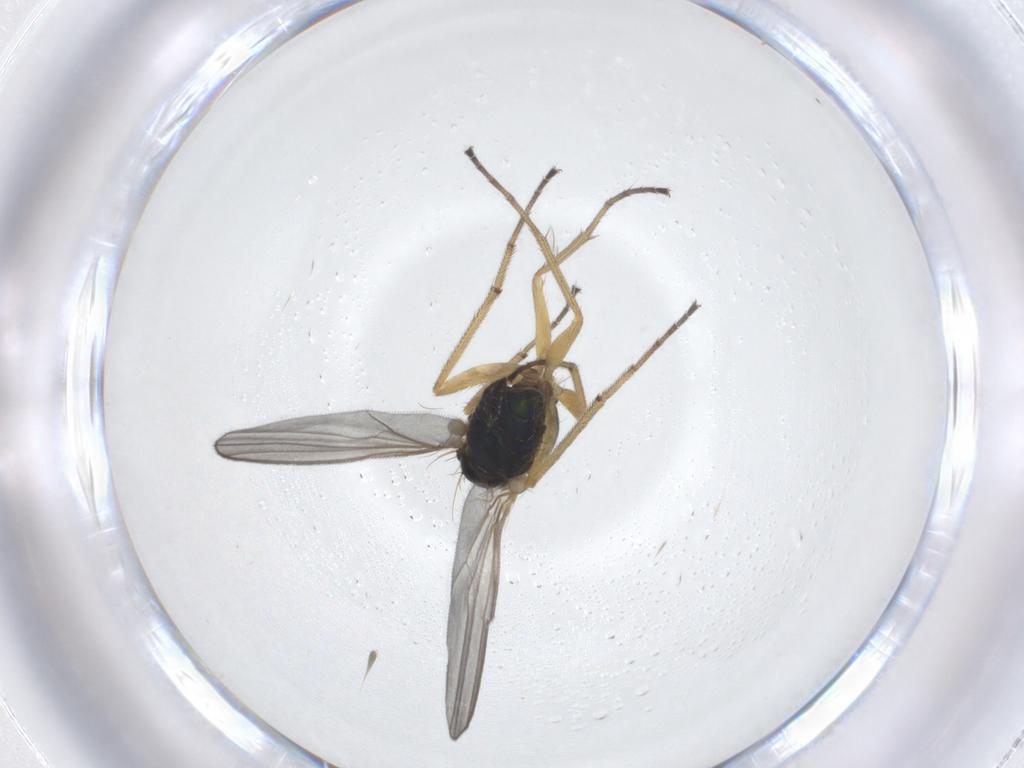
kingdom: Animalia
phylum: Arthropoda
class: Insecta
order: Diptera
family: Dolichopodidae
